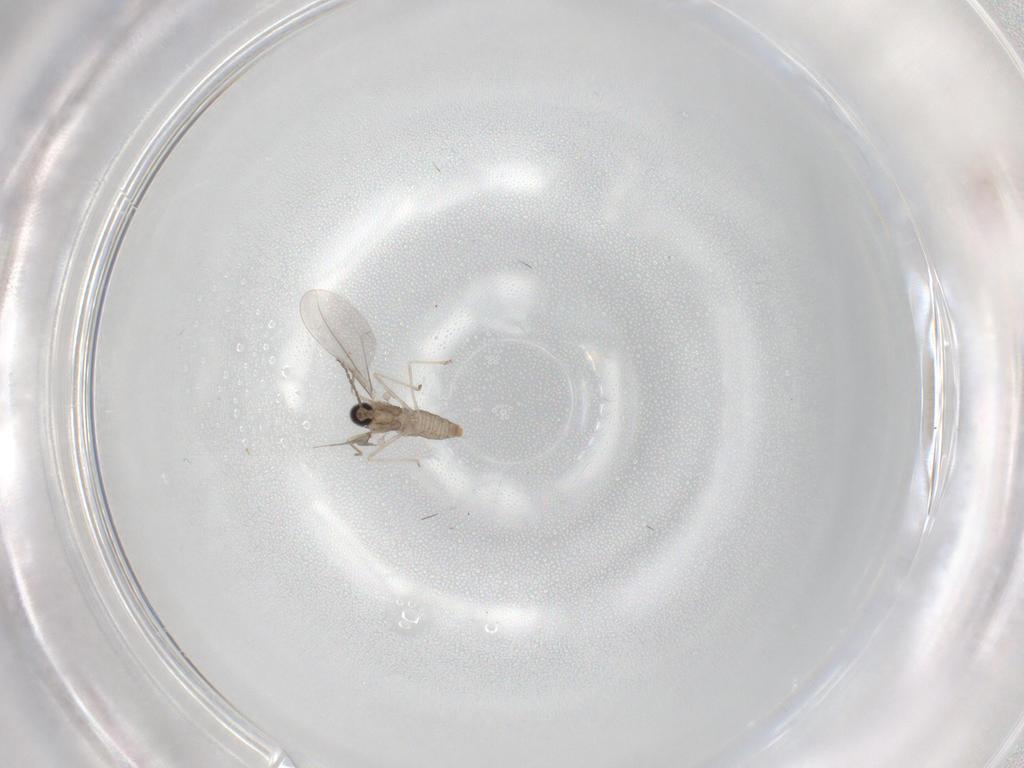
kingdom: Animalia
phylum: Arthropoda
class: Insecta
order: Diptera
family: Cecidomyiidae
